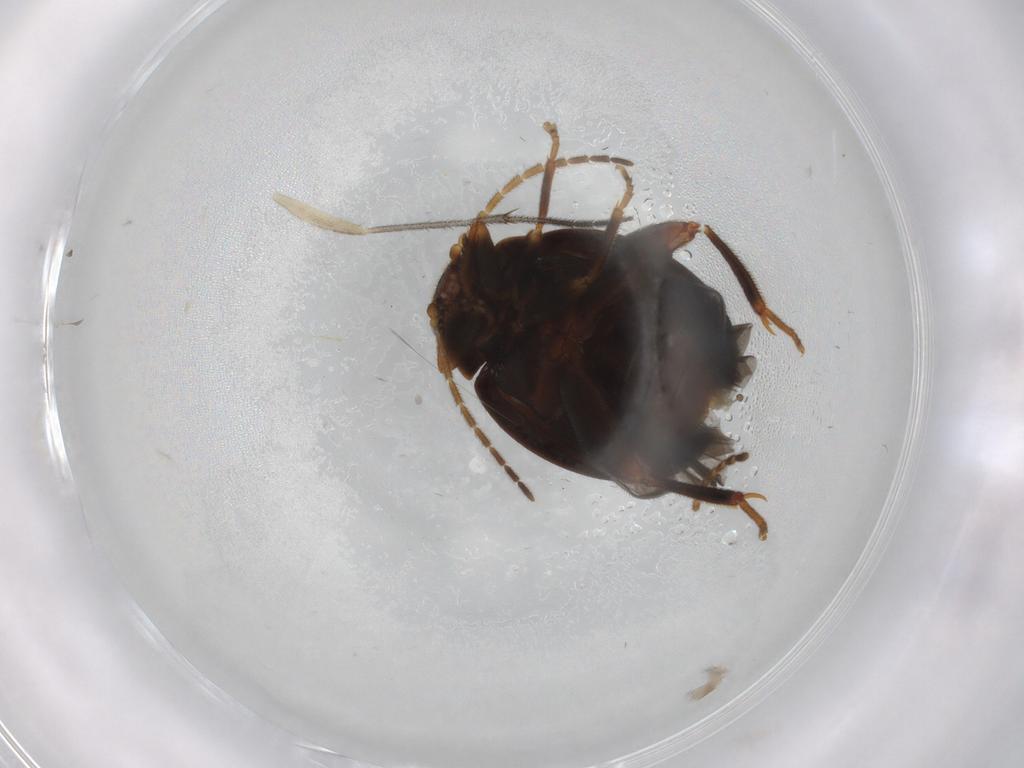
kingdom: Animalia
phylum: Arthropoda
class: Insecta
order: Coleoptera
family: Scirtidae
